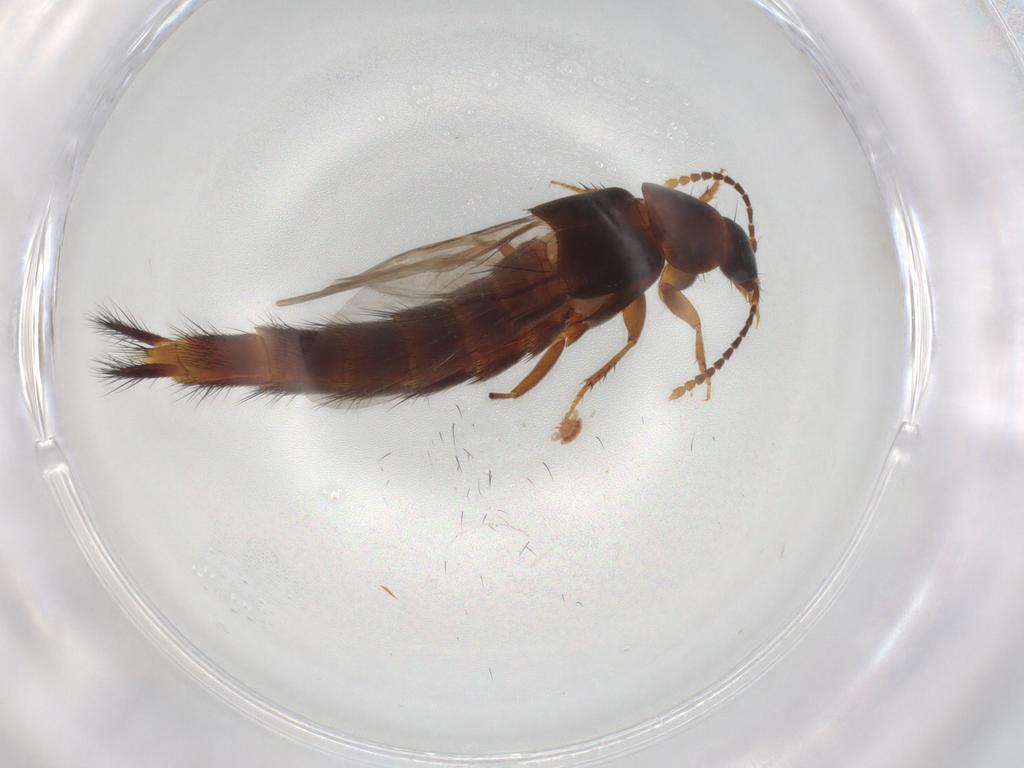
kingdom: Animalia
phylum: Arthropoda
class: Insecta
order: Coleoptera
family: Staphylinidae
